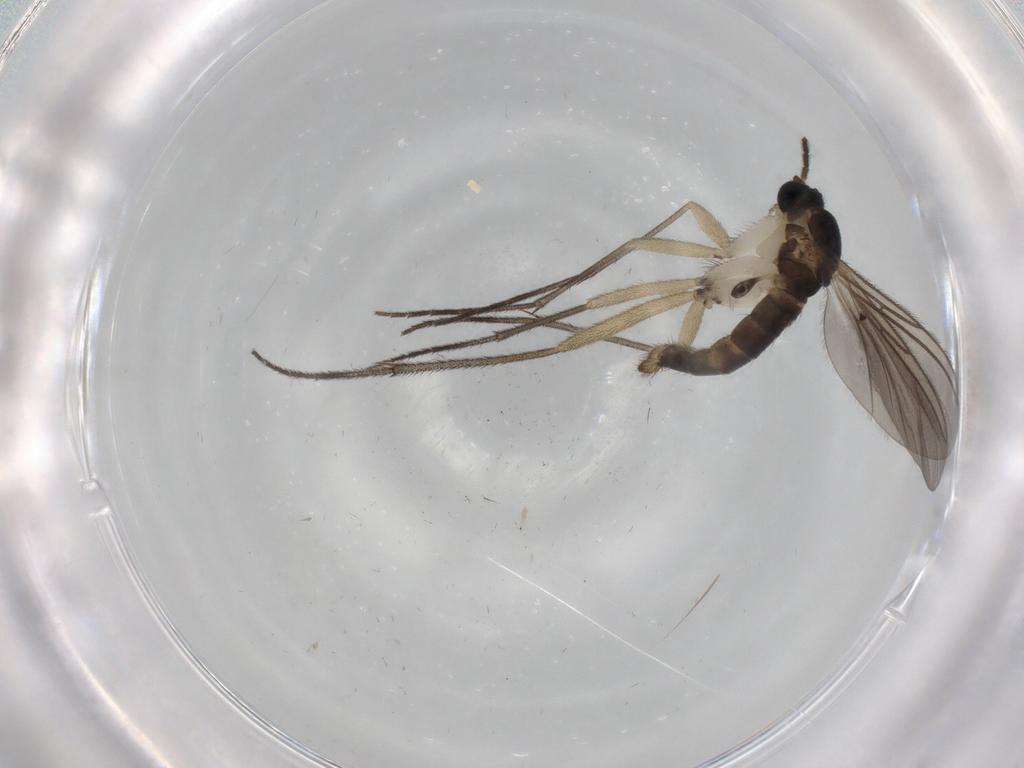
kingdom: Animalia
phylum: Arthropoda
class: Insecta
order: Diptera
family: Sciaridae
